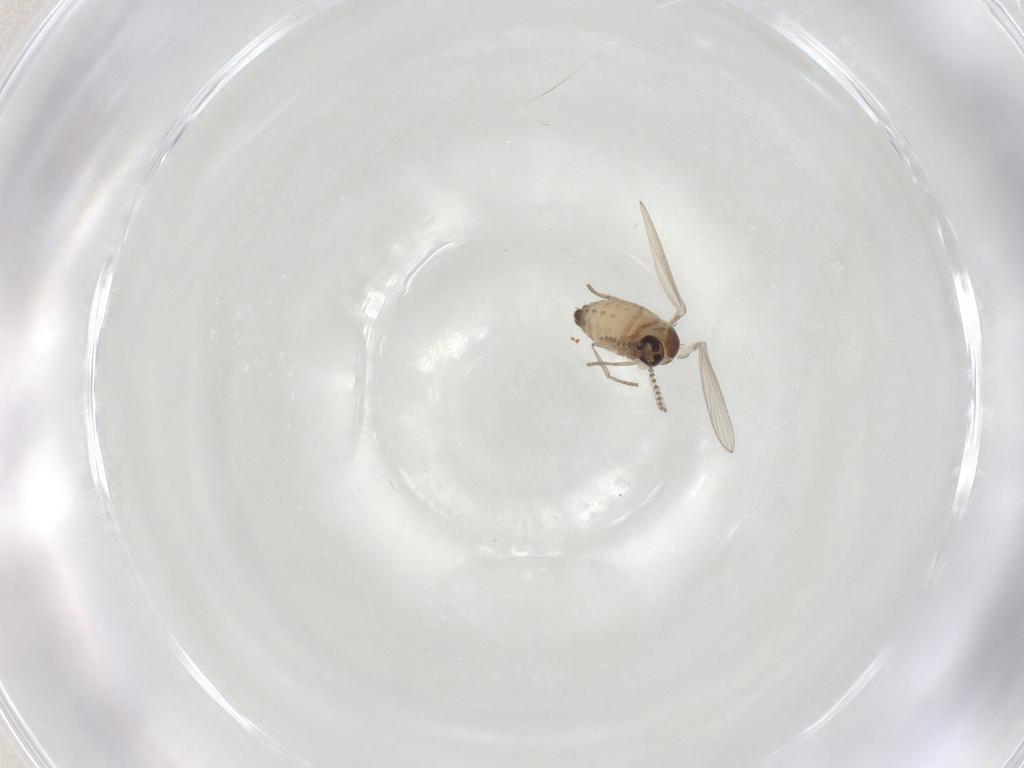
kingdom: Animalia
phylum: Arthropoda
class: Insecta
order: Diptera
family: Psychodidae
